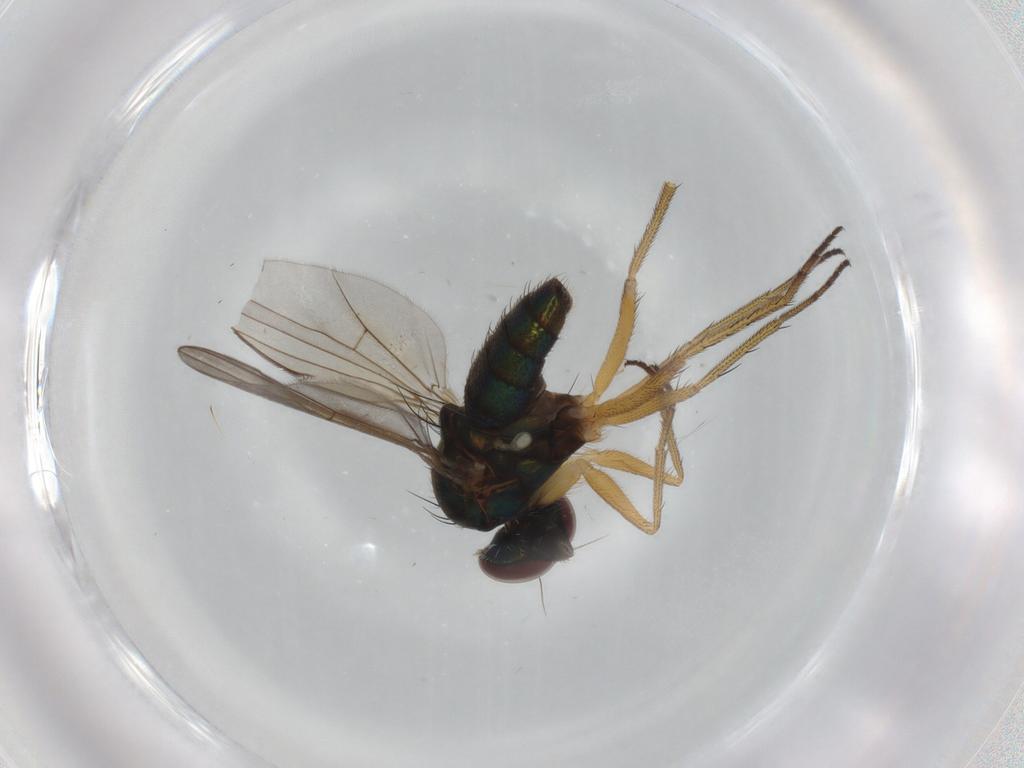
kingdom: Animalia
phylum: Arthropoda
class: Insecta
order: Diptera
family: Dolichopodidae
